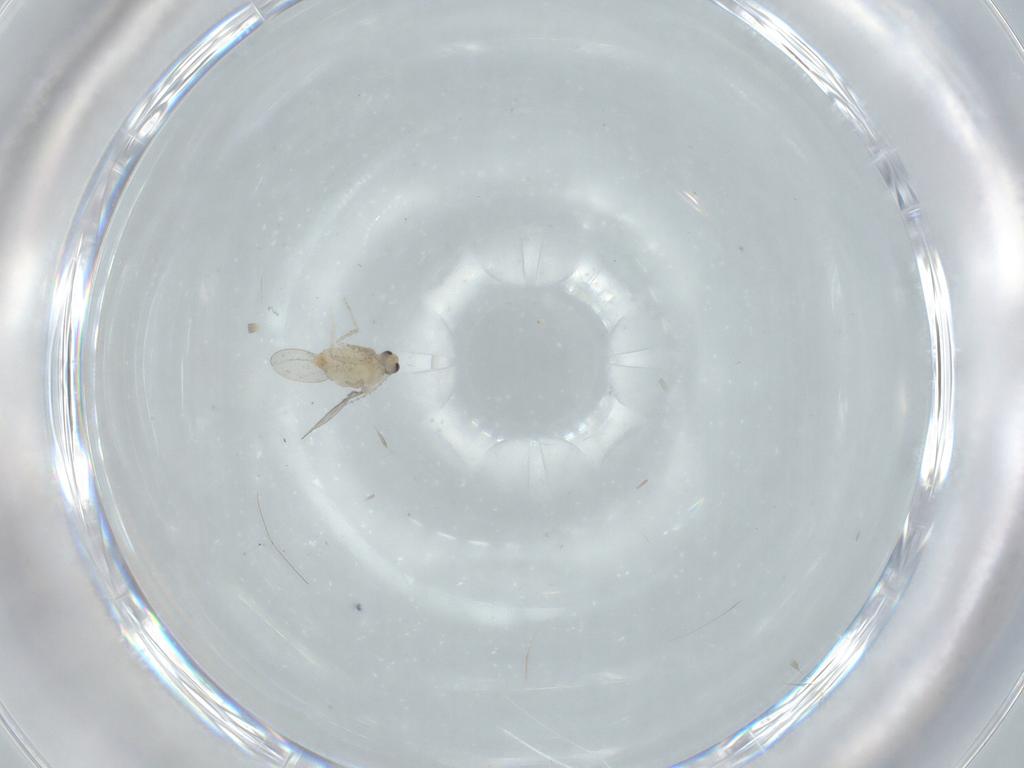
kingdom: Animalia
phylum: Arthropoda
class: Insecta
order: Diptera
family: Cecidomyiidae
